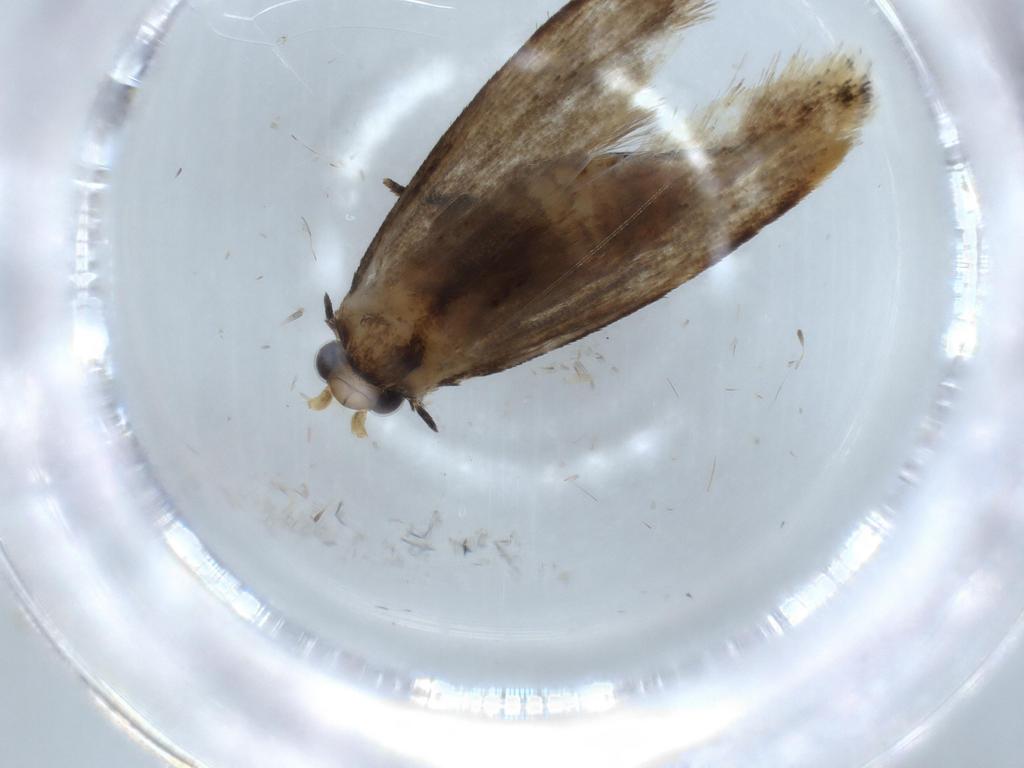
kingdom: Animalia
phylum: Arthropoda
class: Insecta
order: Lepidoptera
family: Tineidae
